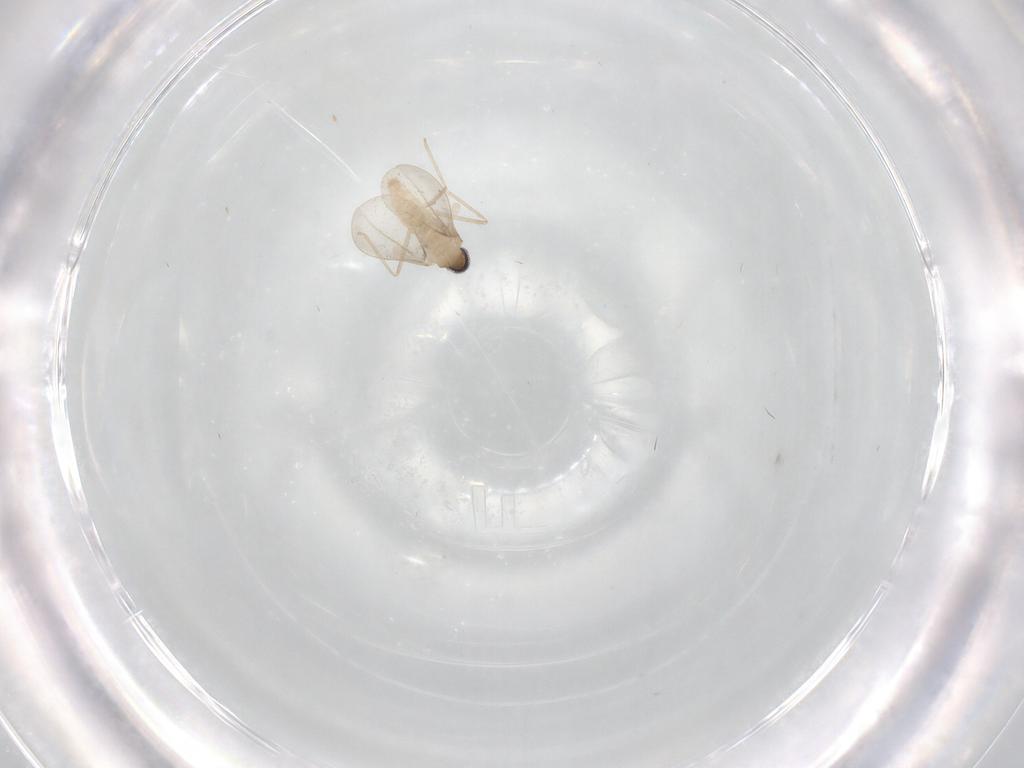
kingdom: Animalia
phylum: Arthropoda
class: Insecta
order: Diptera
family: Cecidomyiidae
